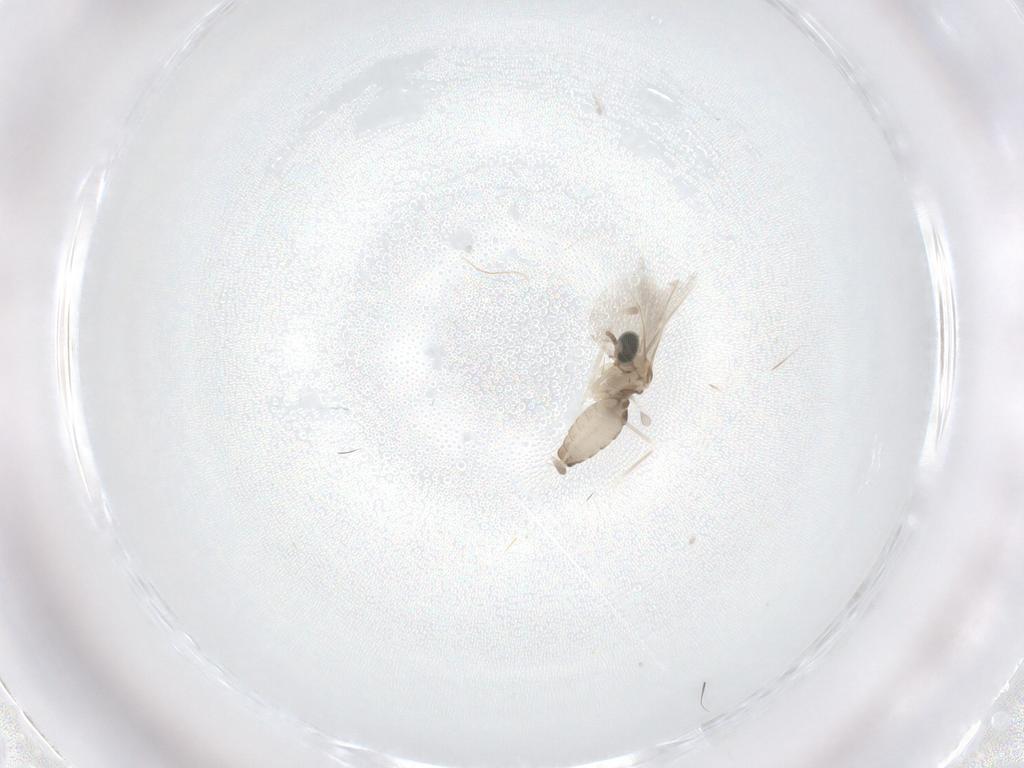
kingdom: Animalia
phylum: Arthropoda
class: Insecta
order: Diptera
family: Cecidomyiidae
